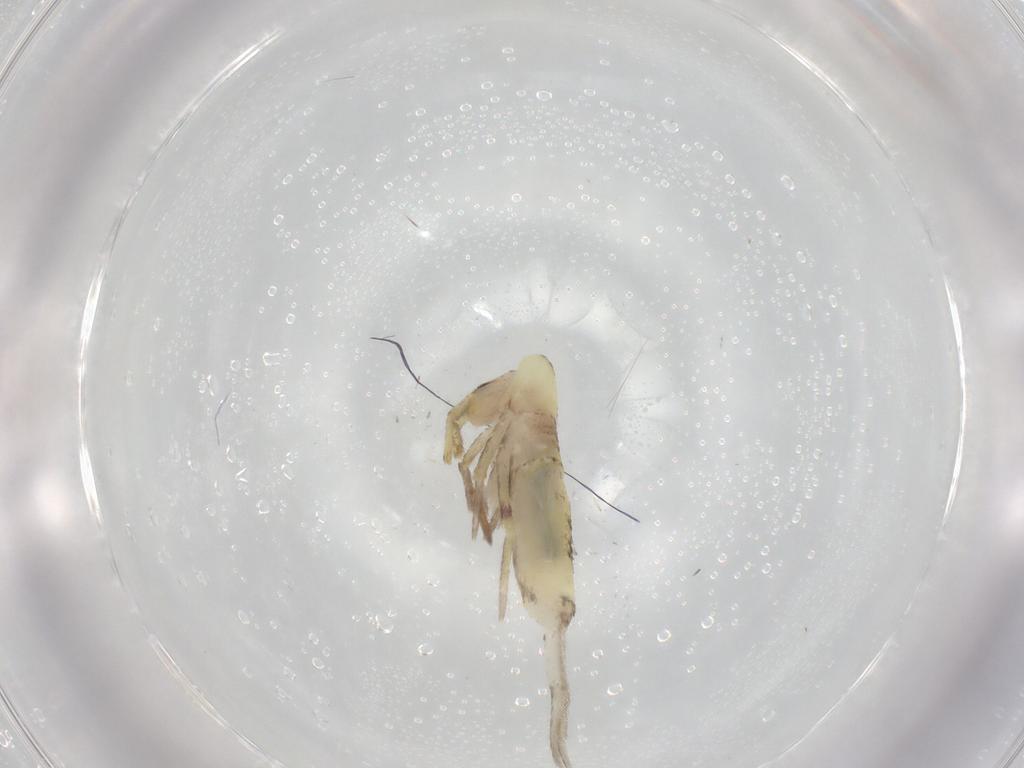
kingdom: Animalia
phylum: Arthropoda
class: Collembola
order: Entomobryomorpha
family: Entomobryidae
